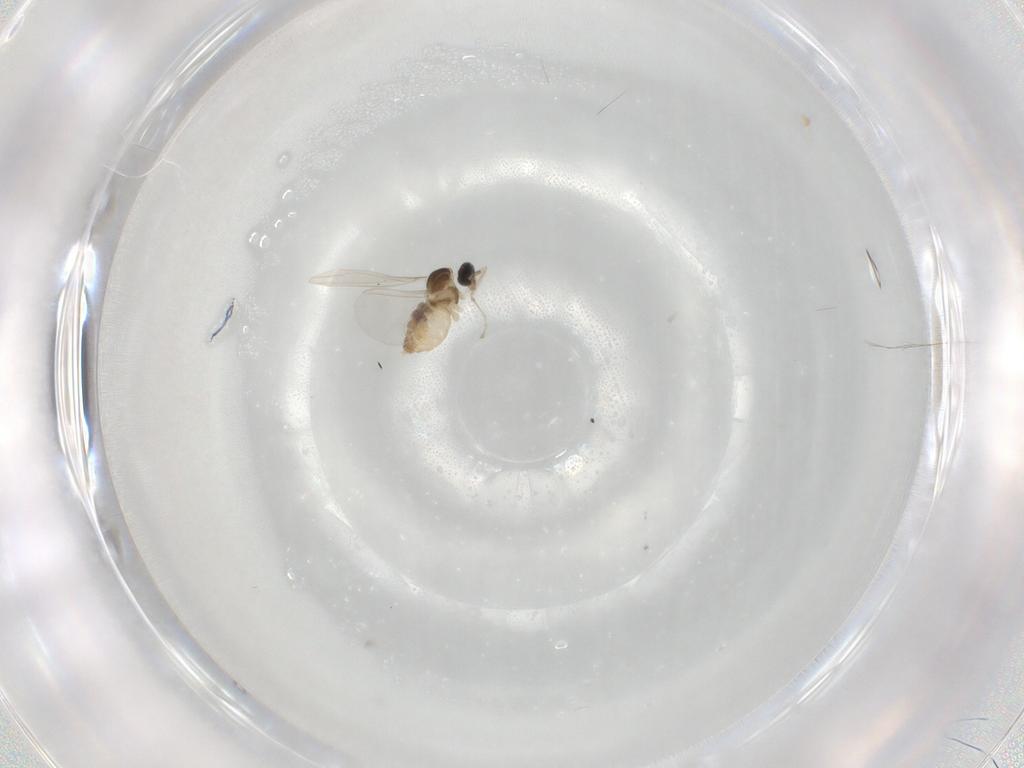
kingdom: Animalia
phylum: Arthropoda
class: Insecta
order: Diptera
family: Cecidomyiidae
